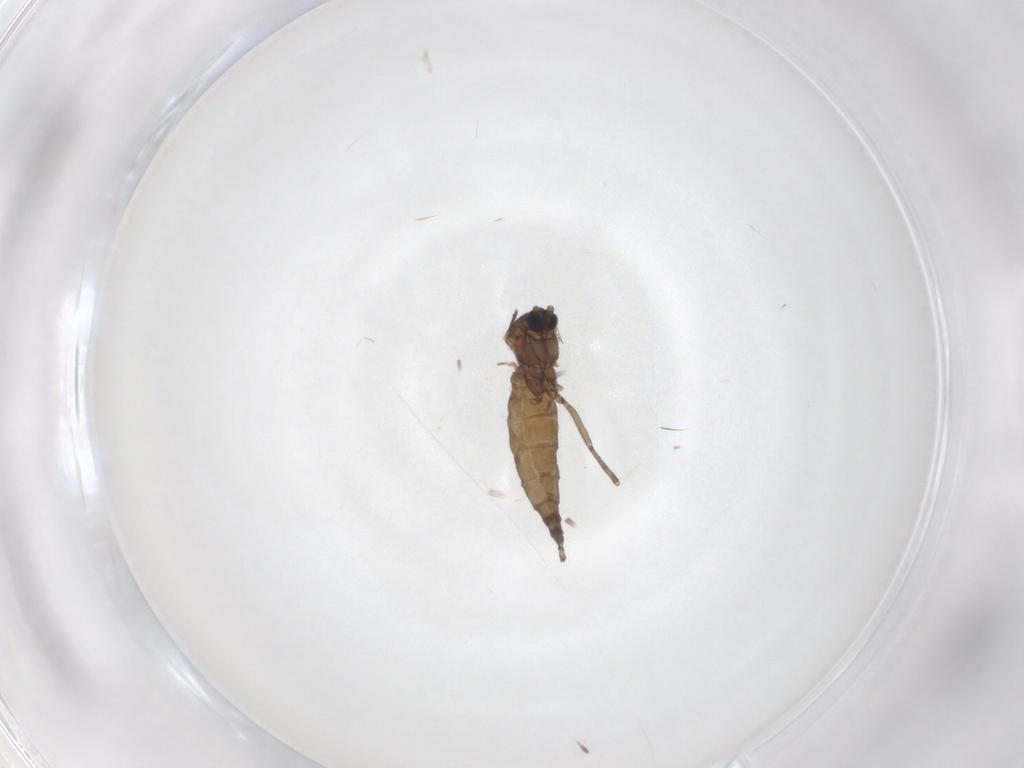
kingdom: Animalia
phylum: Arthropoda
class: Insecta
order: Diptera
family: Sciaridae
